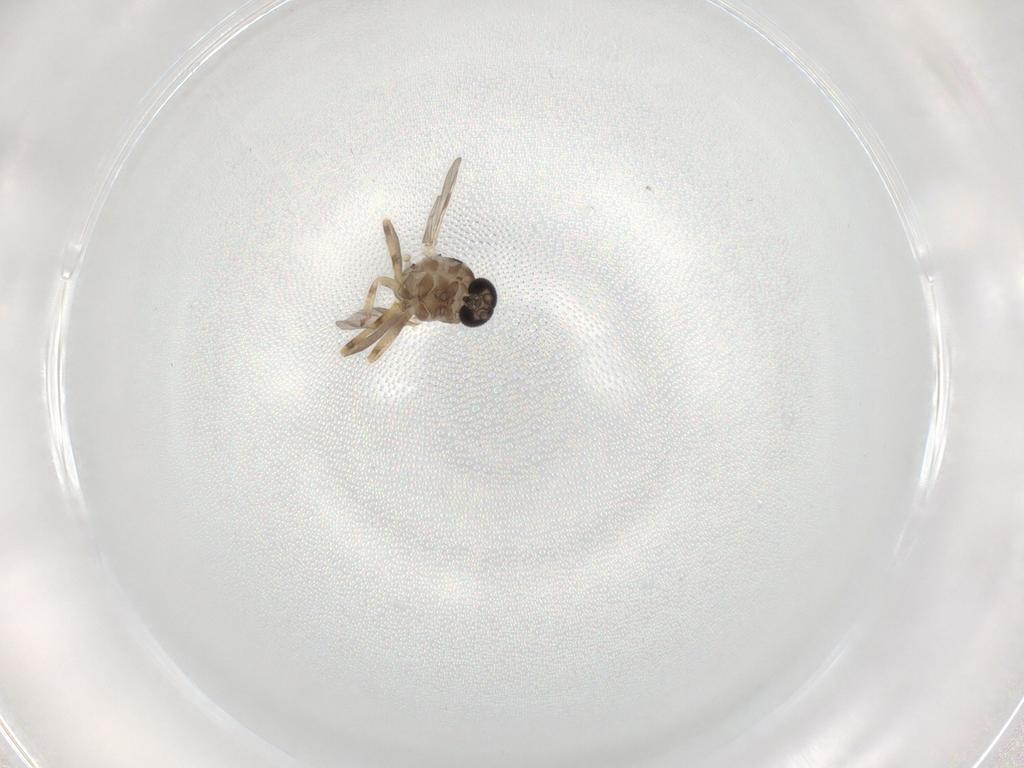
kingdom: Animalia
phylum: Arthropoda
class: Insecta
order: Diptera
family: Ceratopogonidae
